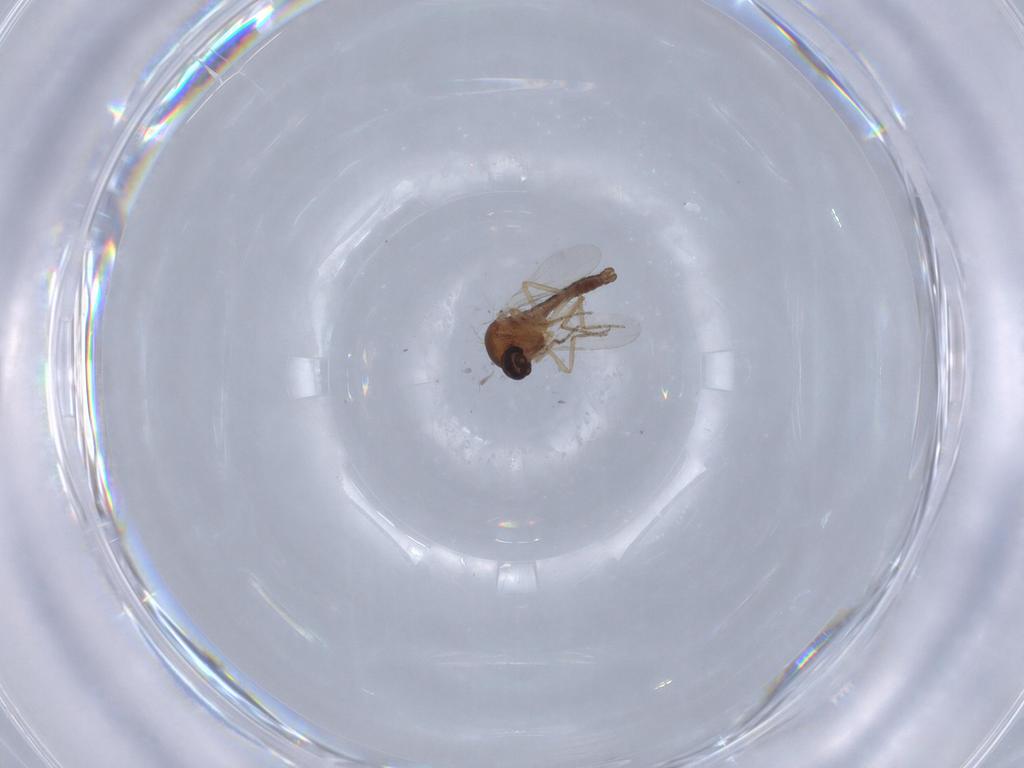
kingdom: Animalia
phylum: Arthropoda
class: Insecta
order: Diptera
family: Ceratopogonidae
